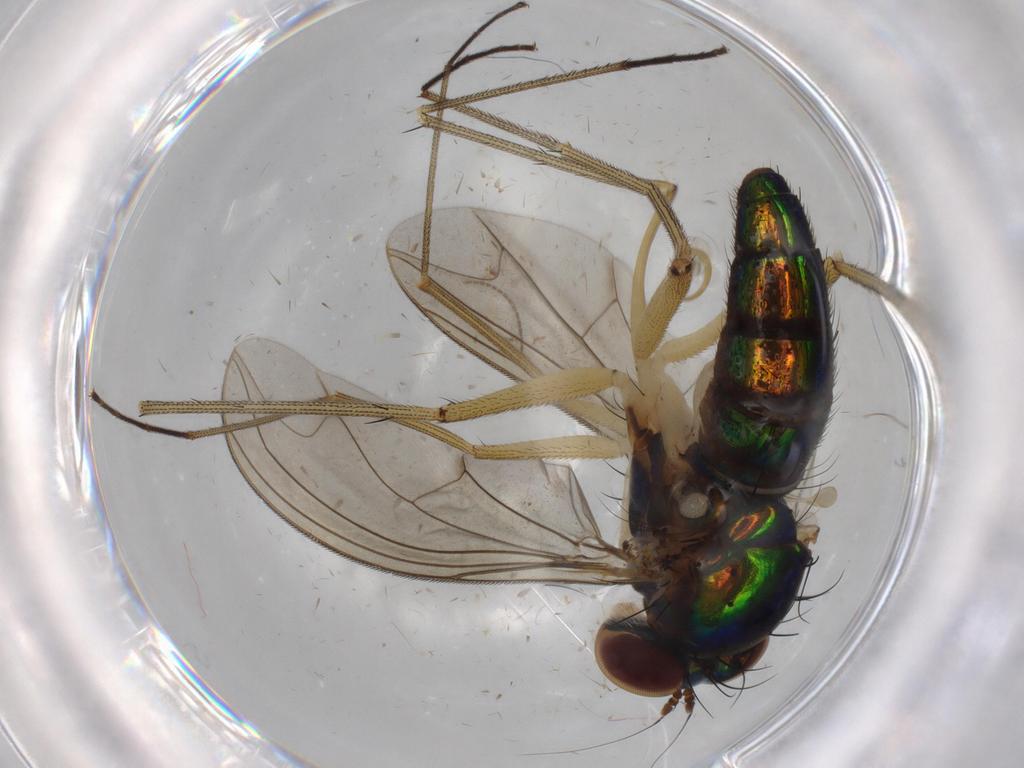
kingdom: Animalia
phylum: Arthropoda
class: Insecta
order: Diptera
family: Dolichopodidae
